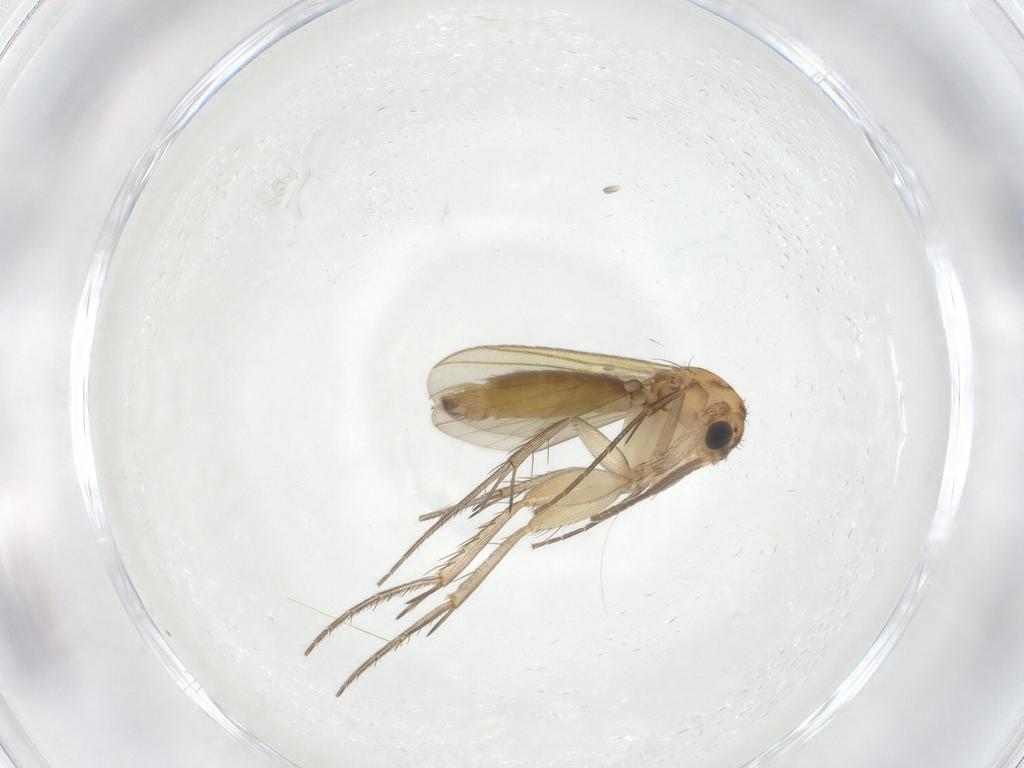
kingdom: Animalia
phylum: Arthropoda
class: Insecta
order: Diptera
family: Mycetophilidae
